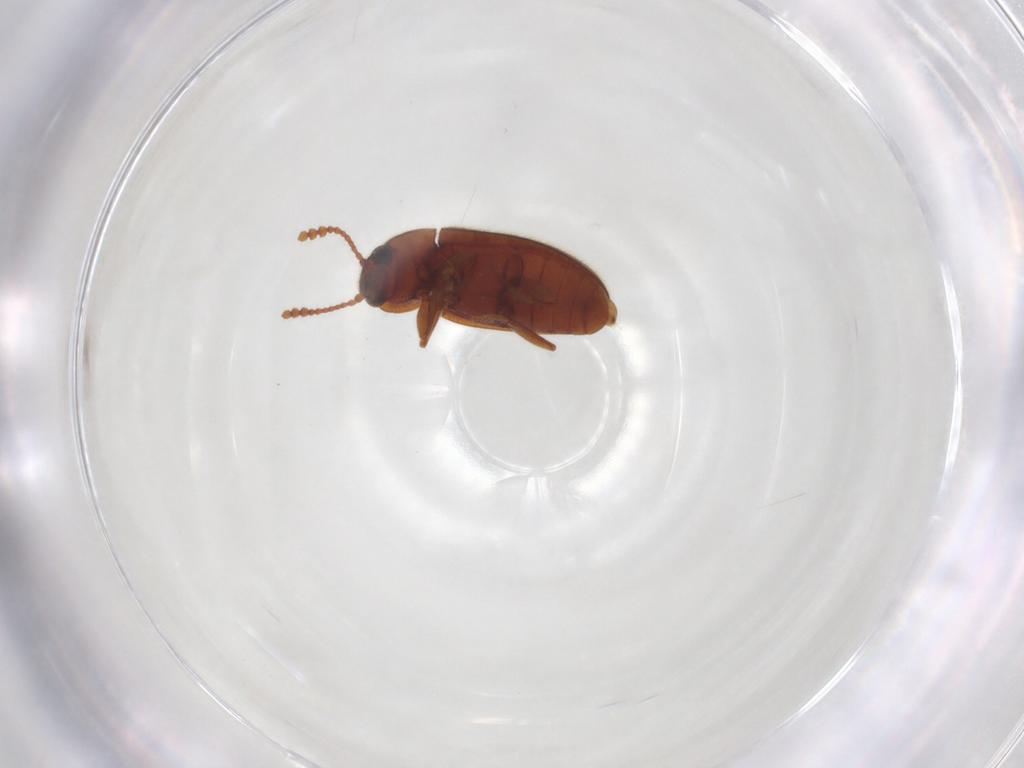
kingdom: Animalia
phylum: Arthropoda
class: Insecta
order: Coleoptera
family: Erotylidae
